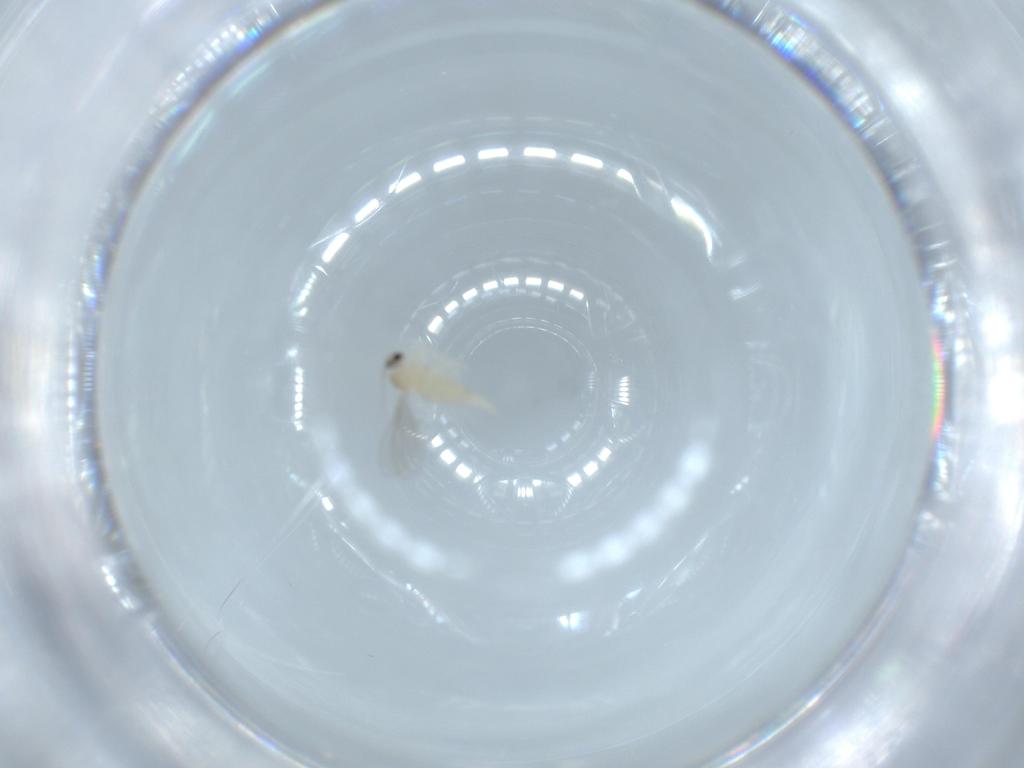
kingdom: Animalia
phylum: Arthropoda
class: Insecta
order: Diptera
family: Cecidomyiidae
